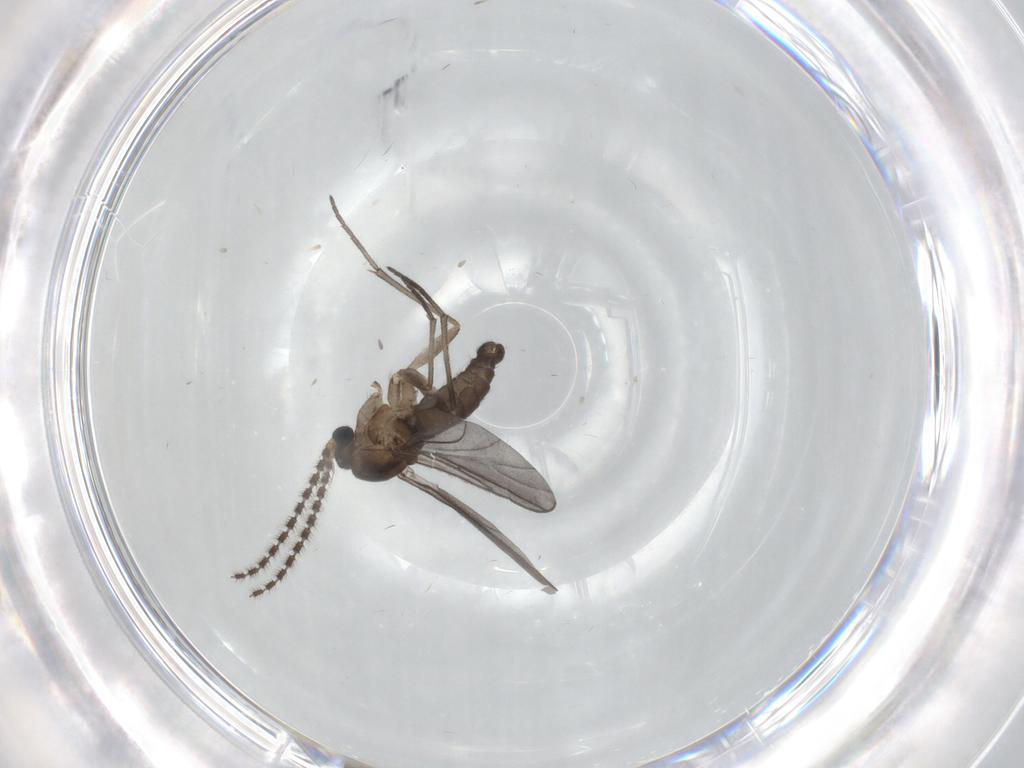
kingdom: Animalia
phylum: Arthropoda
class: Insecta
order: Diptera
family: Sciaridae
